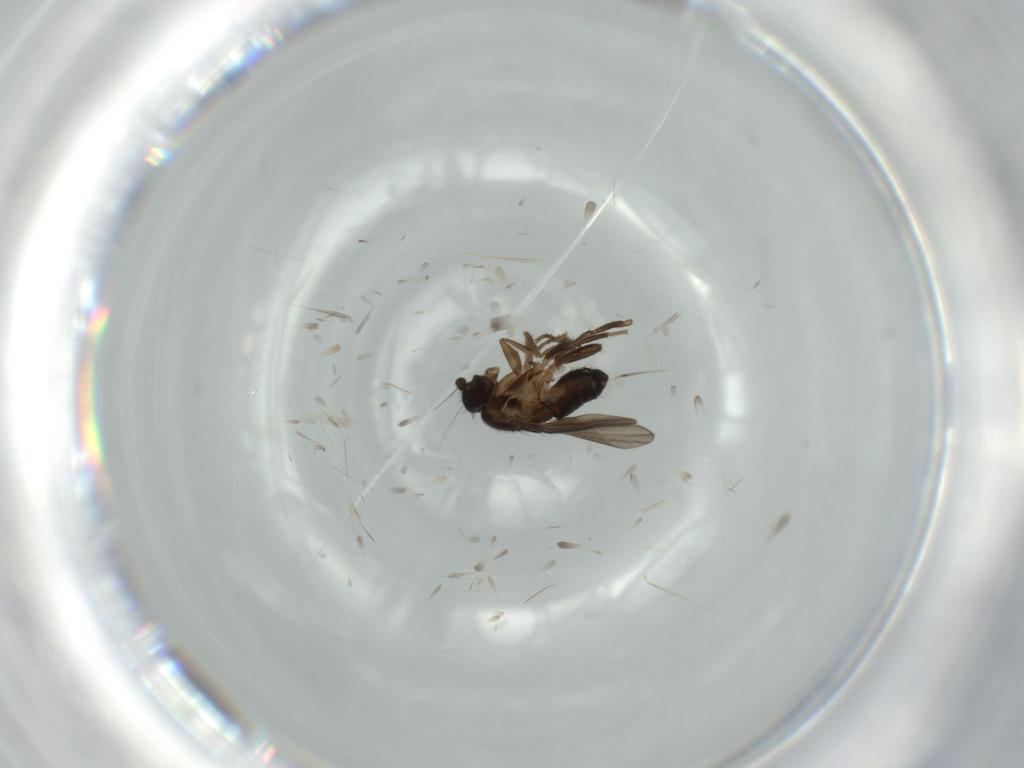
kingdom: Animalia
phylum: Arthropoda
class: Insecta
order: Diptera
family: Sphaeroceridae
